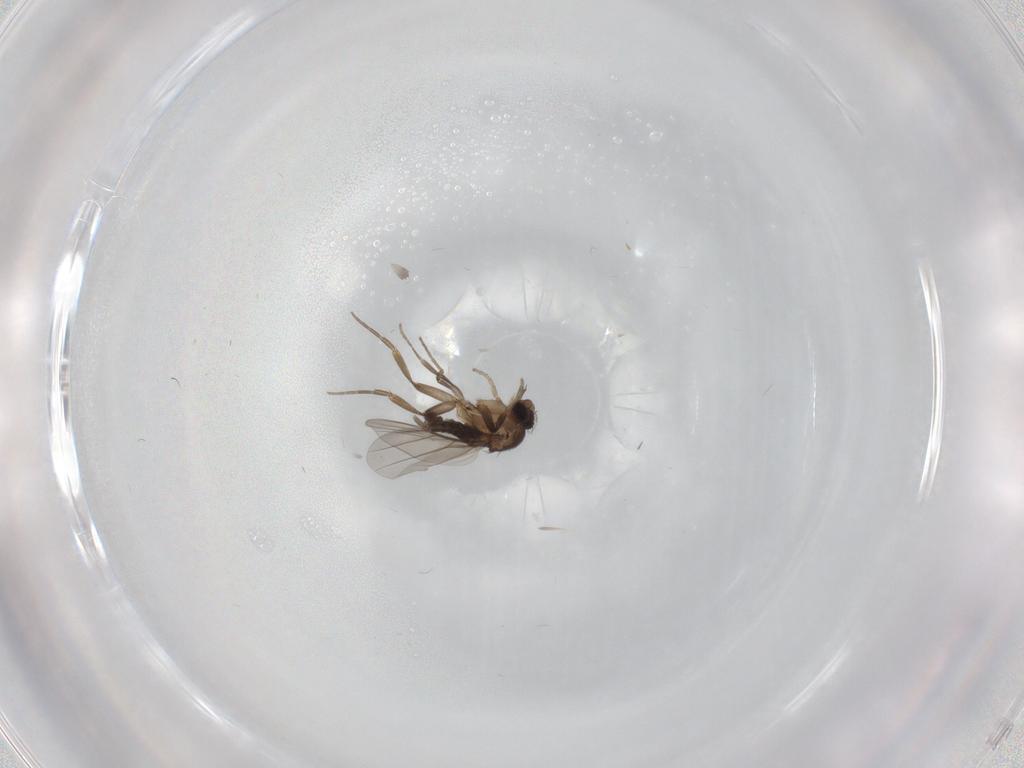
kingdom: Animalia
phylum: Arthropoda
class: Insecta
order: Diptera
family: Phoridae
